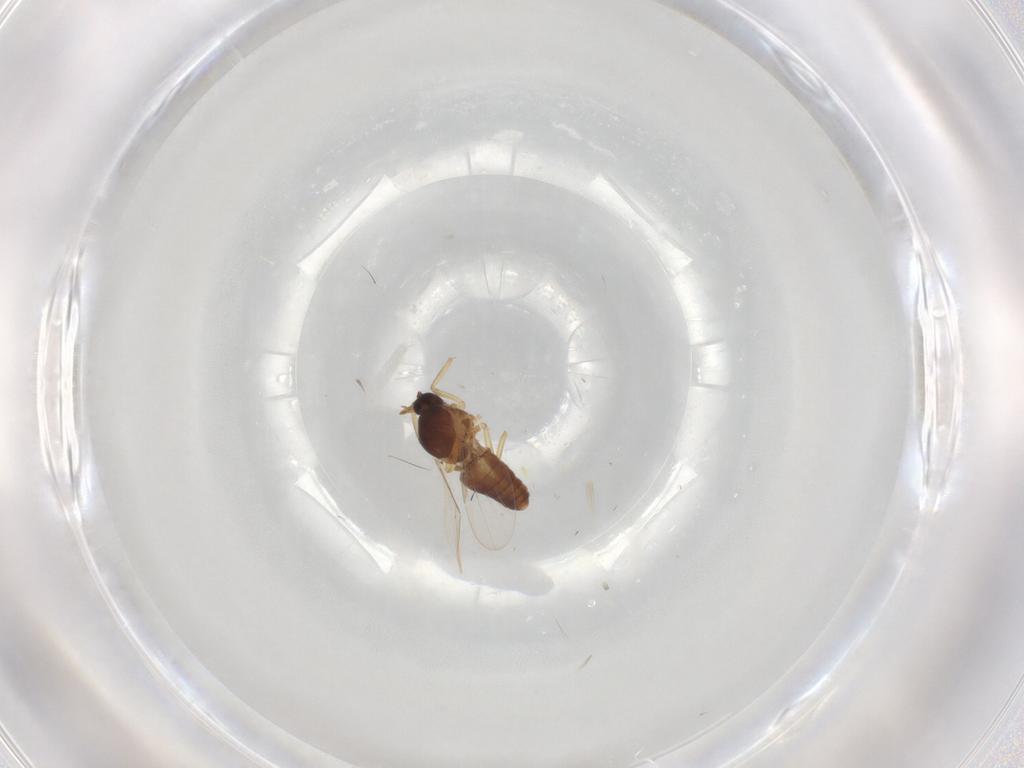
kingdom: Animalia
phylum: Arthropoda
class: Insecta
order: Diptera
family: Ceratopogonidae
